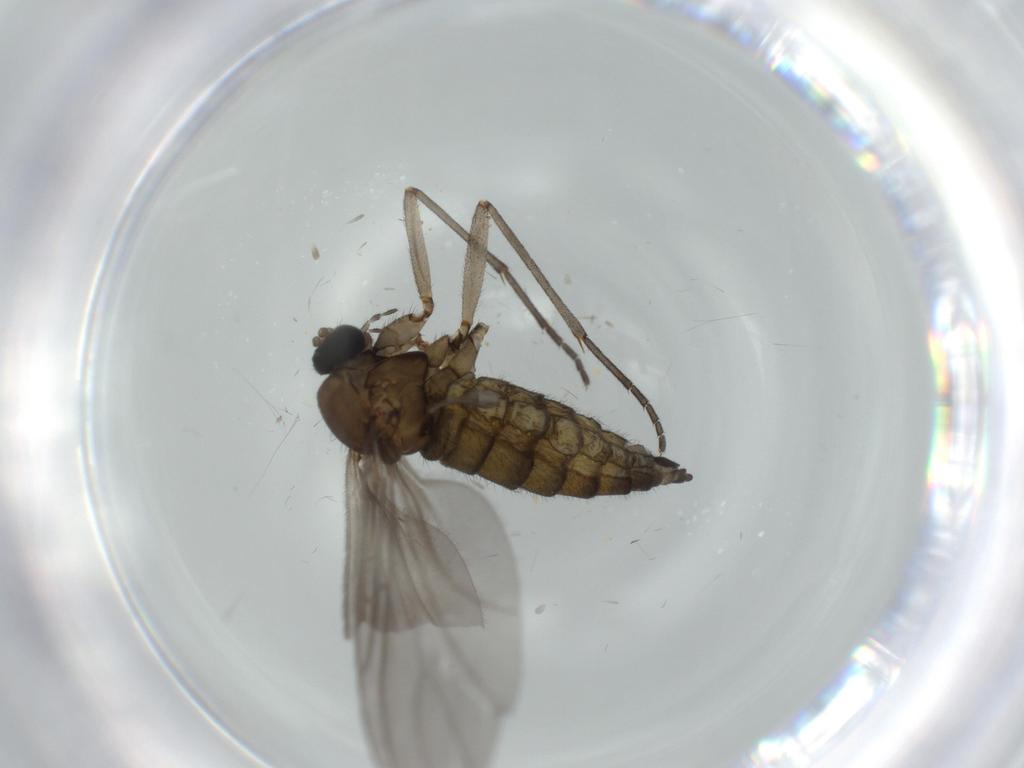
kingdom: Animalia
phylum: Arthropoda
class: Insecta
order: Diptera
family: Sciaridae
